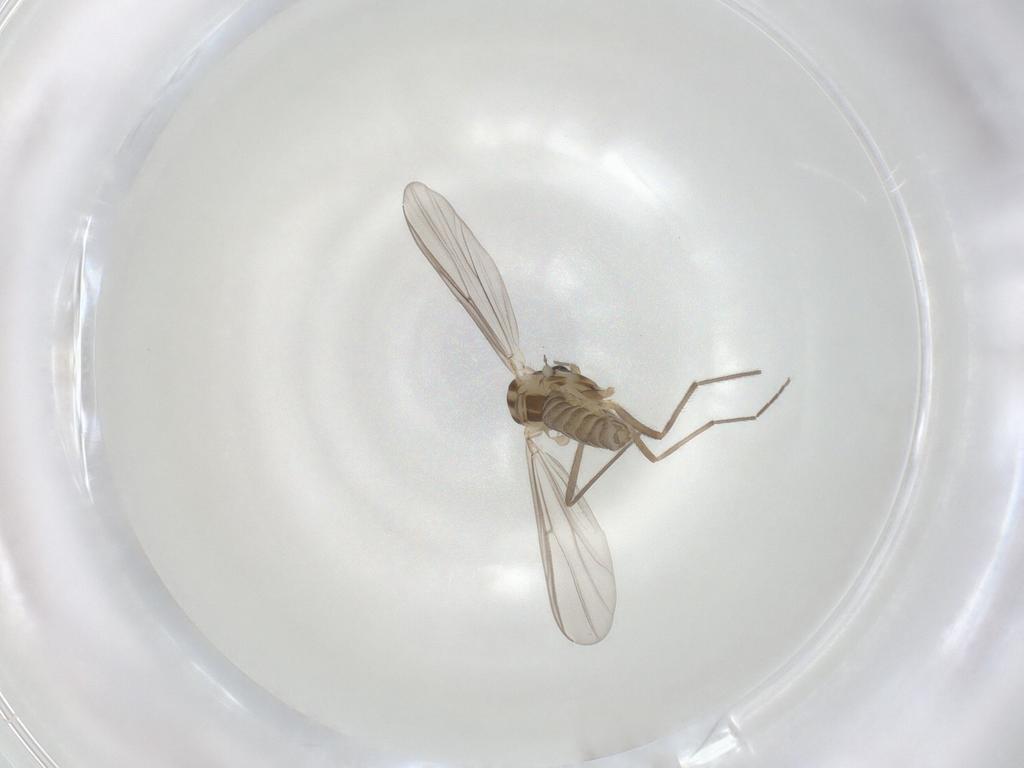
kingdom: Animalia
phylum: Arthropoda
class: Insecta
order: Diptera
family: Chironomidae
